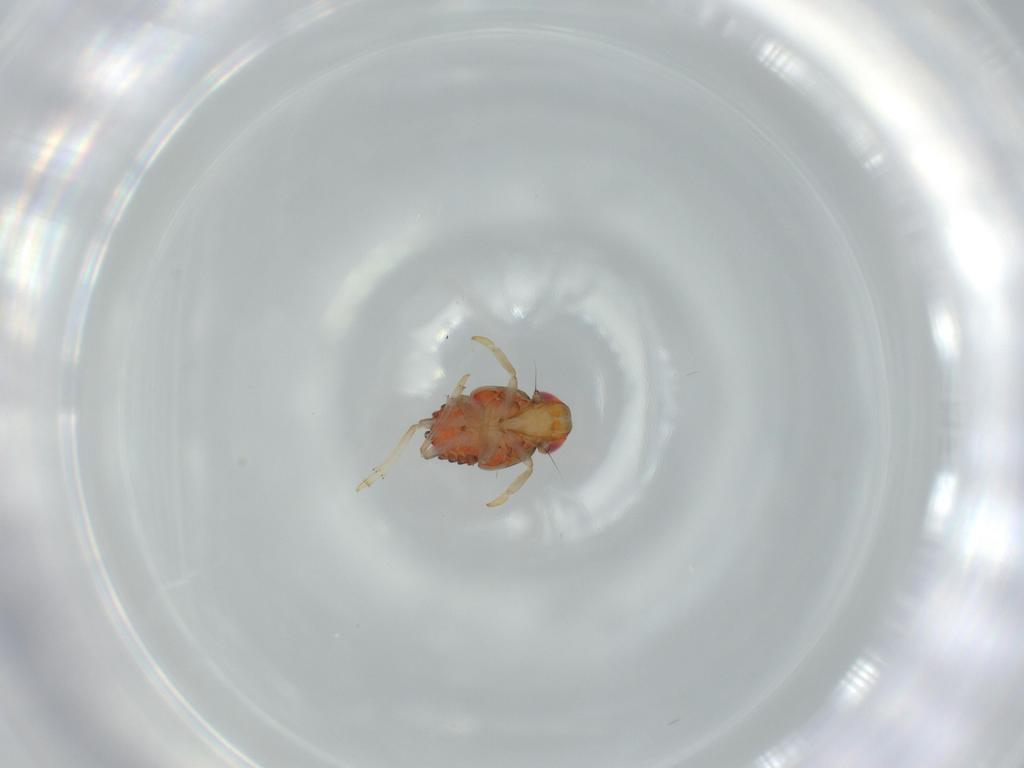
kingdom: Animalia
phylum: Arthropoda
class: Insecta
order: Hemiptera
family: Issidae
